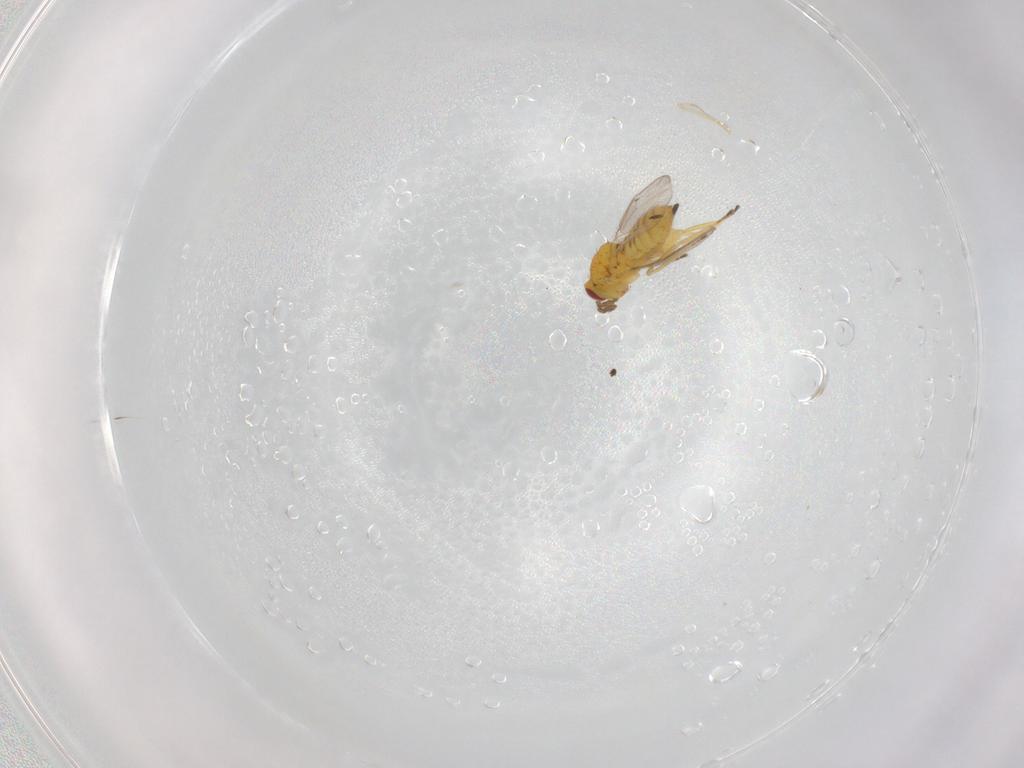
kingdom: Animalia
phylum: Arthropoda
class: Insecta
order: Hymenoptera
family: Eulophidae
